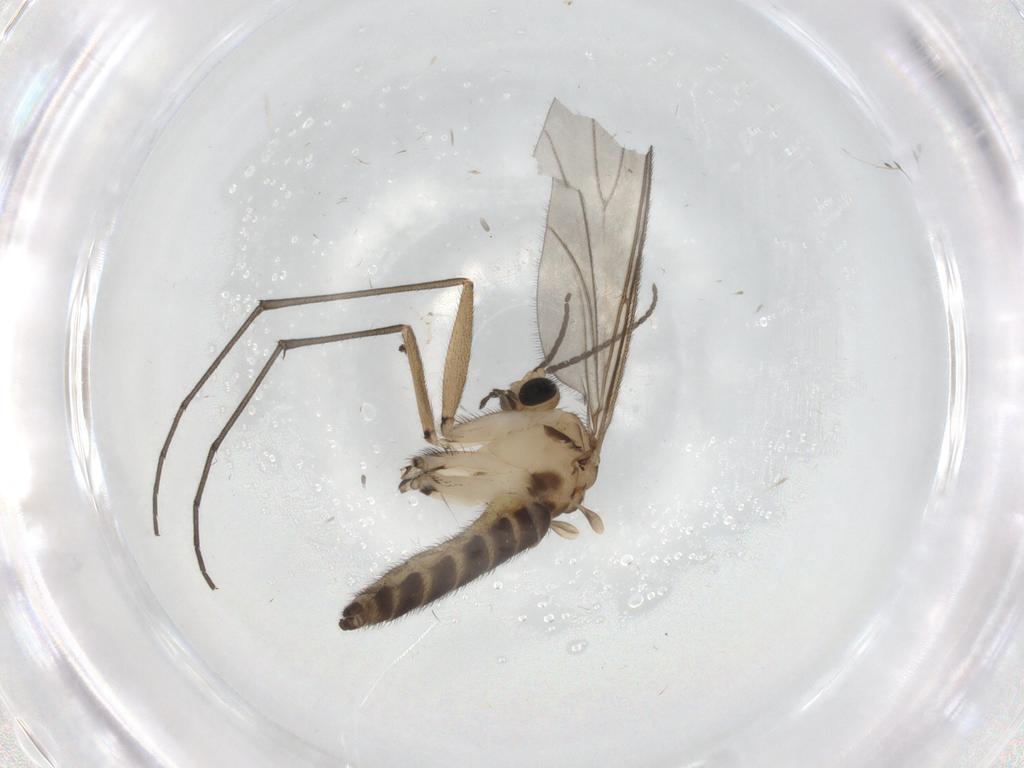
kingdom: Animalia
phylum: Arthropoda
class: Insecta
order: Diptera
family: Sciaridae
